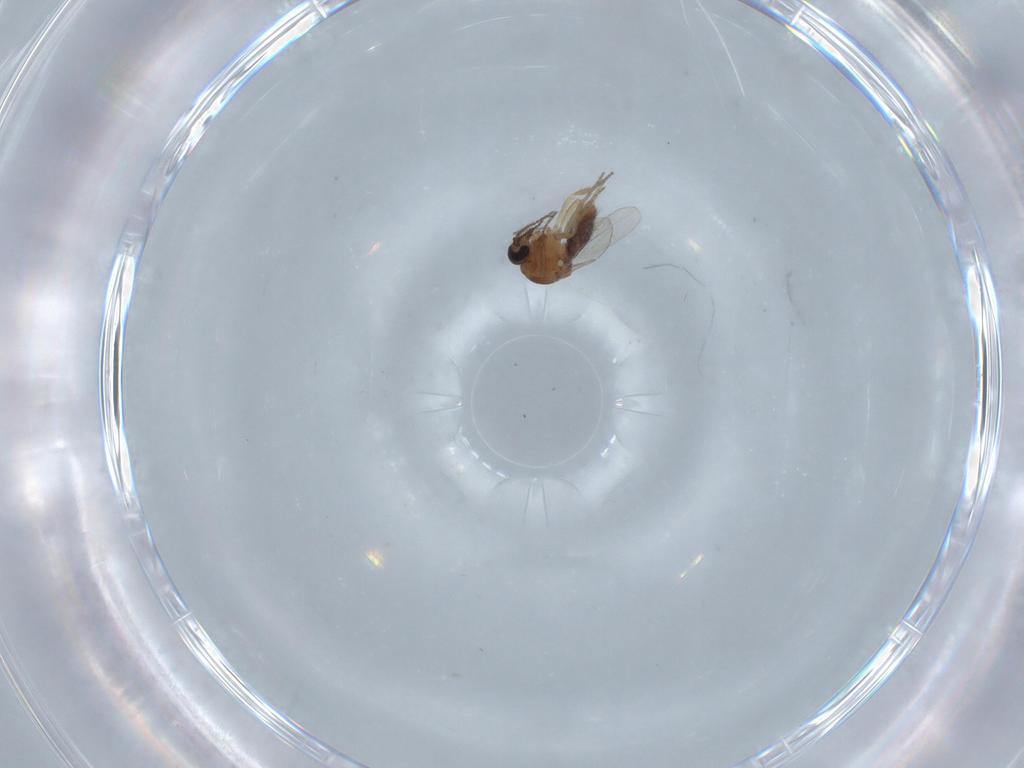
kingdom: Animalia
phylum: Arthropoda
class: Insecta
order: Diptera
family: Ceratopogonidae
